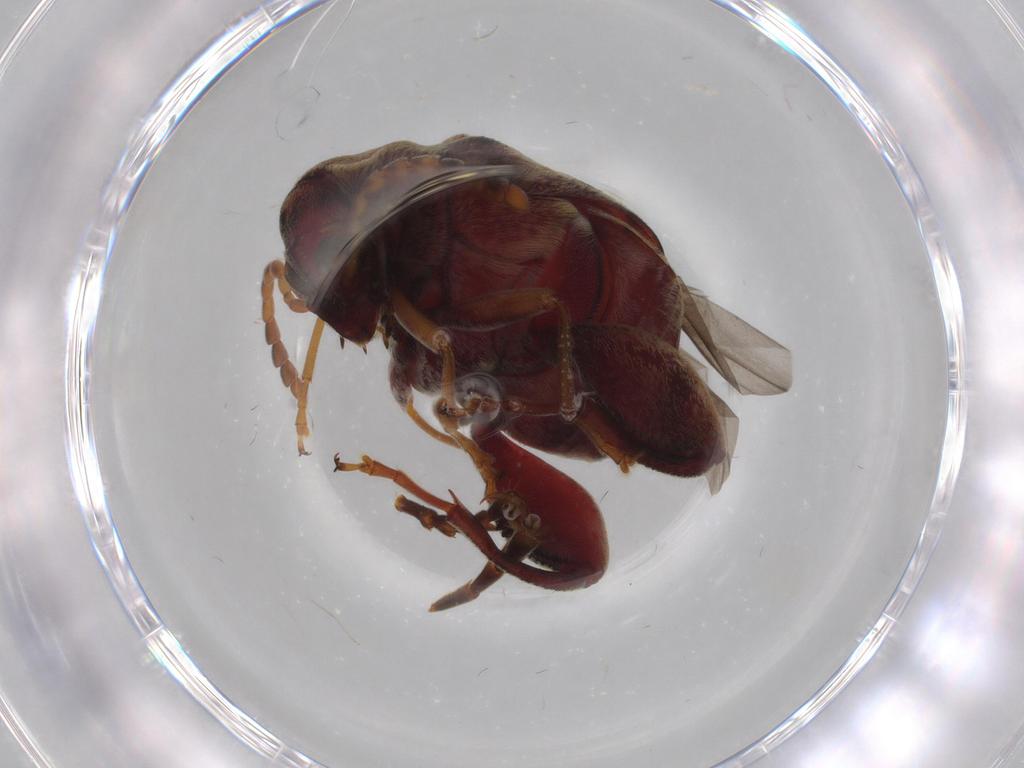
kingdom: Animalia
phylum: Arthropoda
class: Insecta
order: Coleoptera
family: Chrysomelidae
